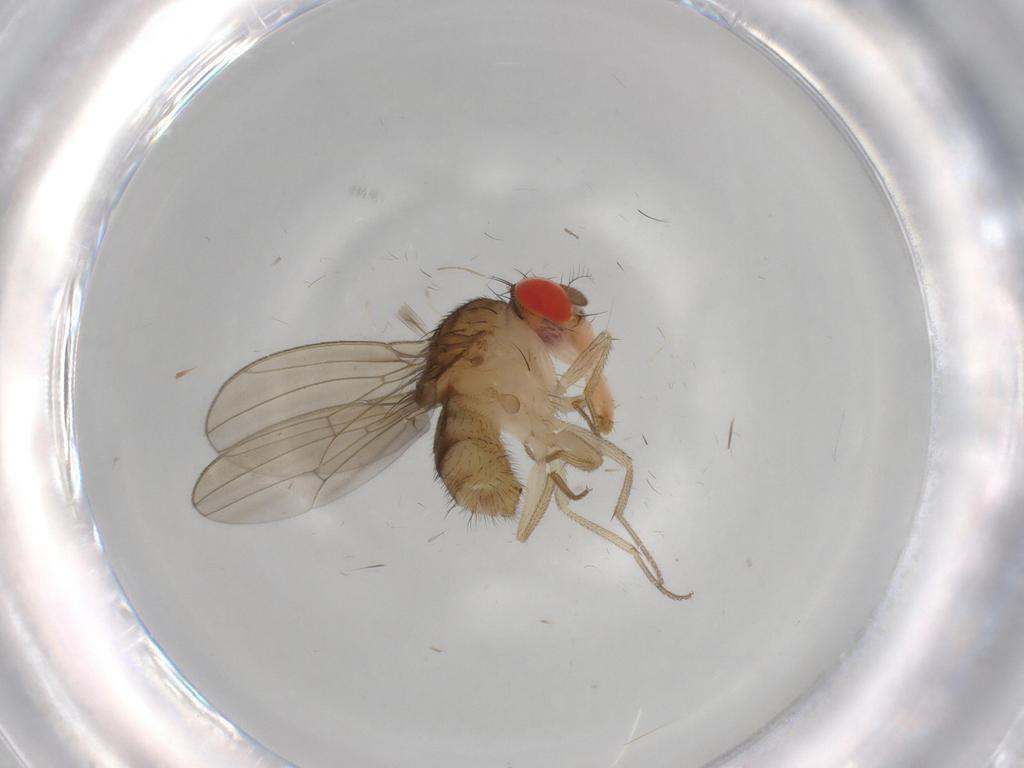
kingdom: Animalia
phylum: Arthropoda
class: Insecta
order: Diptera
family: Drosophilidae
